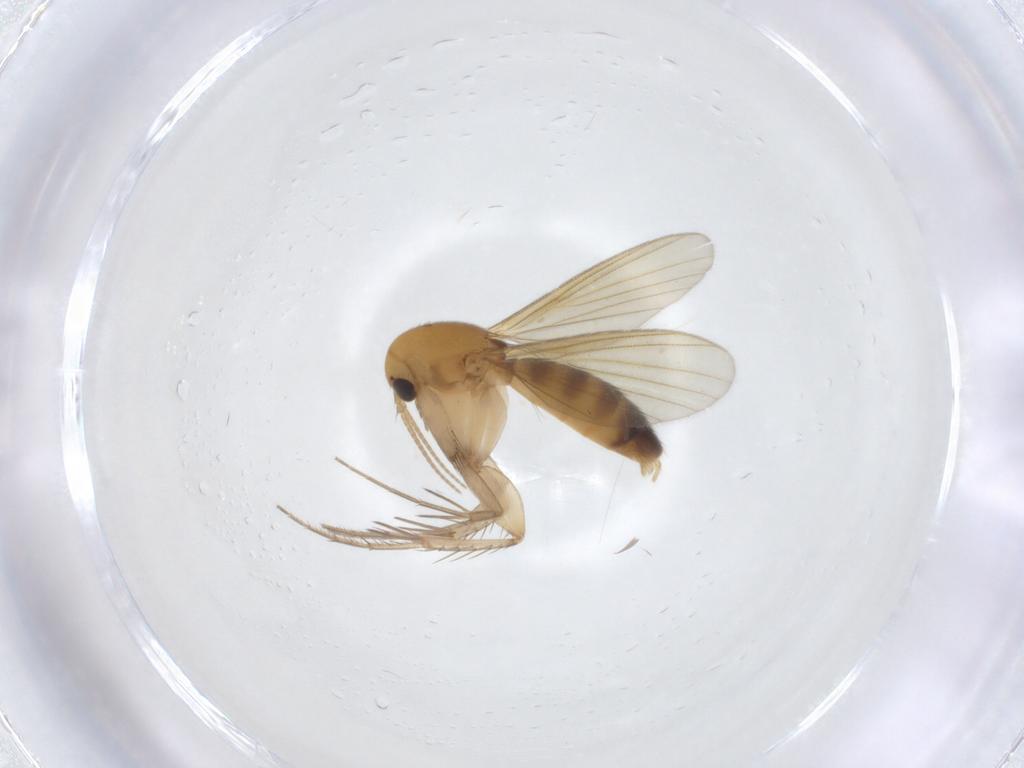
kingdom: Animalia
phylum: Arthropoda
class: Insecta
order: Diptera
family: Mycetophilidae
